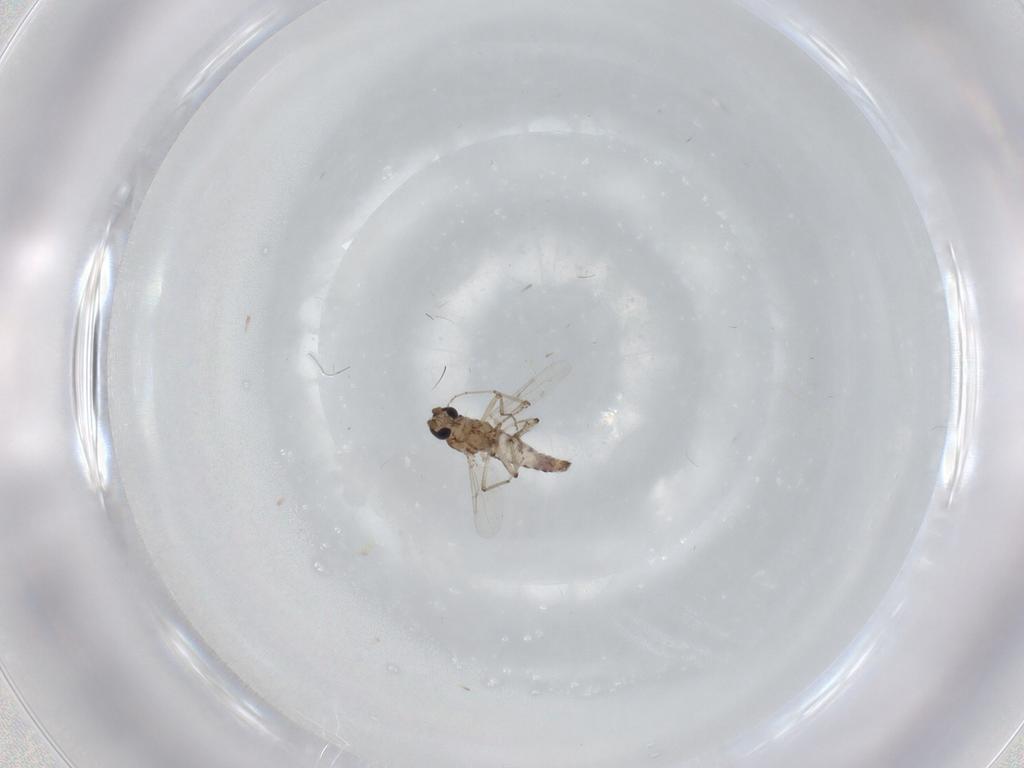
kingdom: Animalia
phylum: Arthropoda
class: Insecta
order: Diptera
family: Ceratopogonidae
